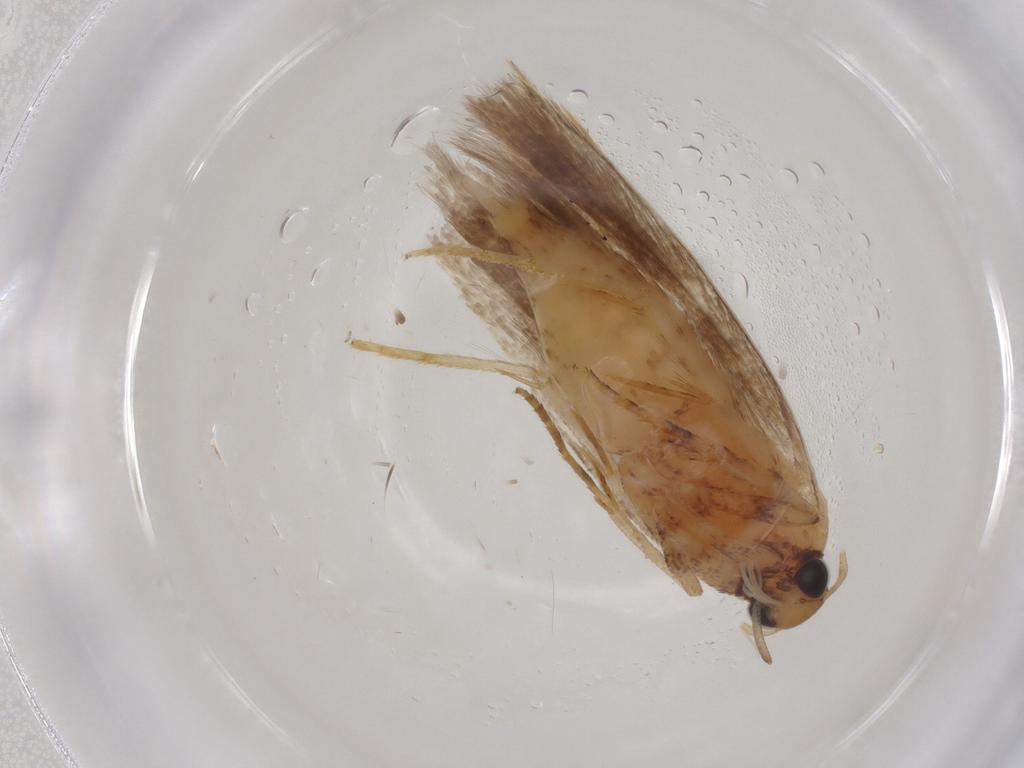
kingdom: Animalia
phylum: Arthropoda
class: Insecta
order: Lepidoptera
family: Gelechiidae
